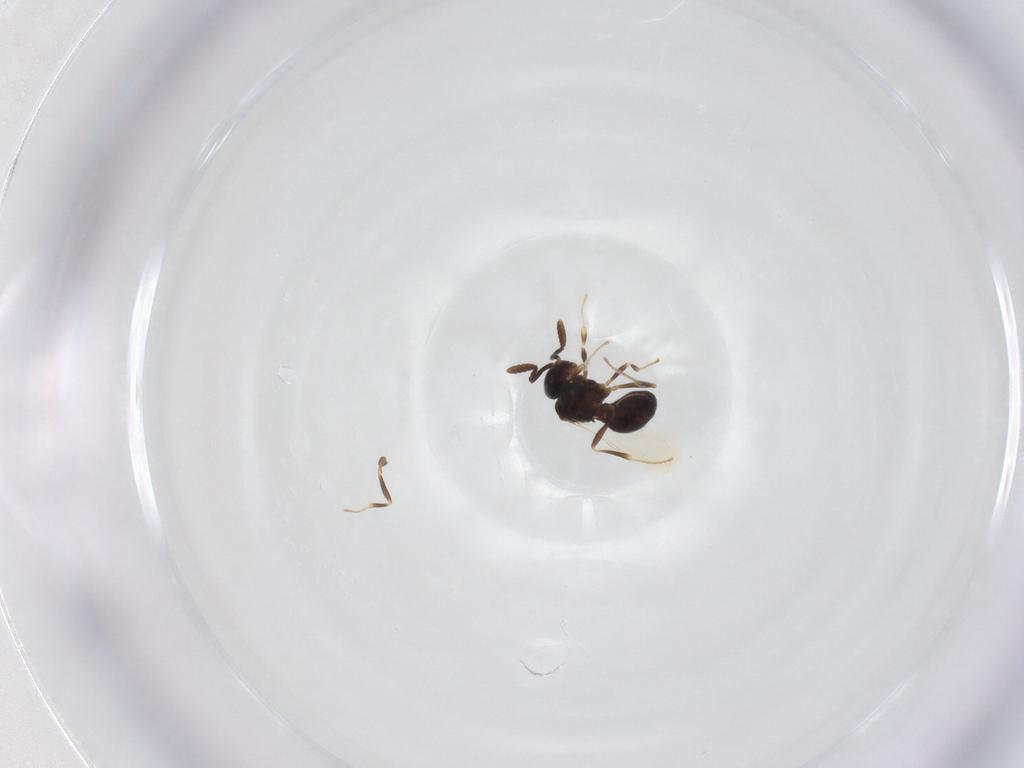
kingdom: Animalia
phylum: Arthropoda
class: Insecta
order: Hymenoptera
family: Scelionidae
